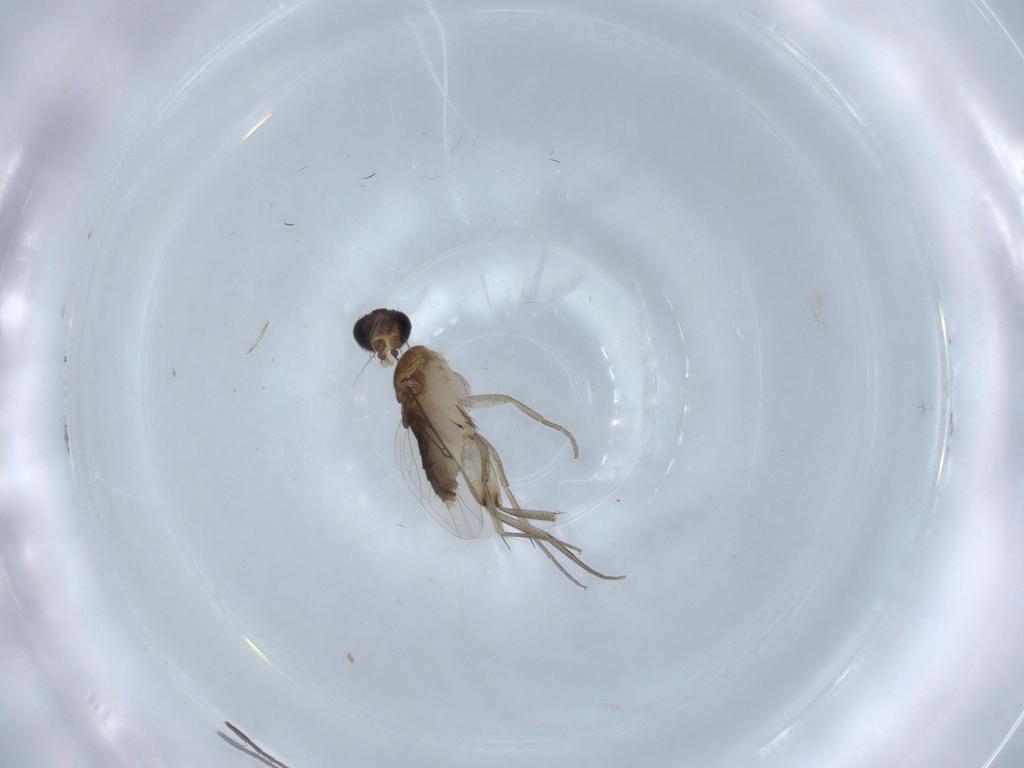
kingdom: Animalia
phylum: Arthropoda
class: Insecta
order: Diptera
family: Phoridae
